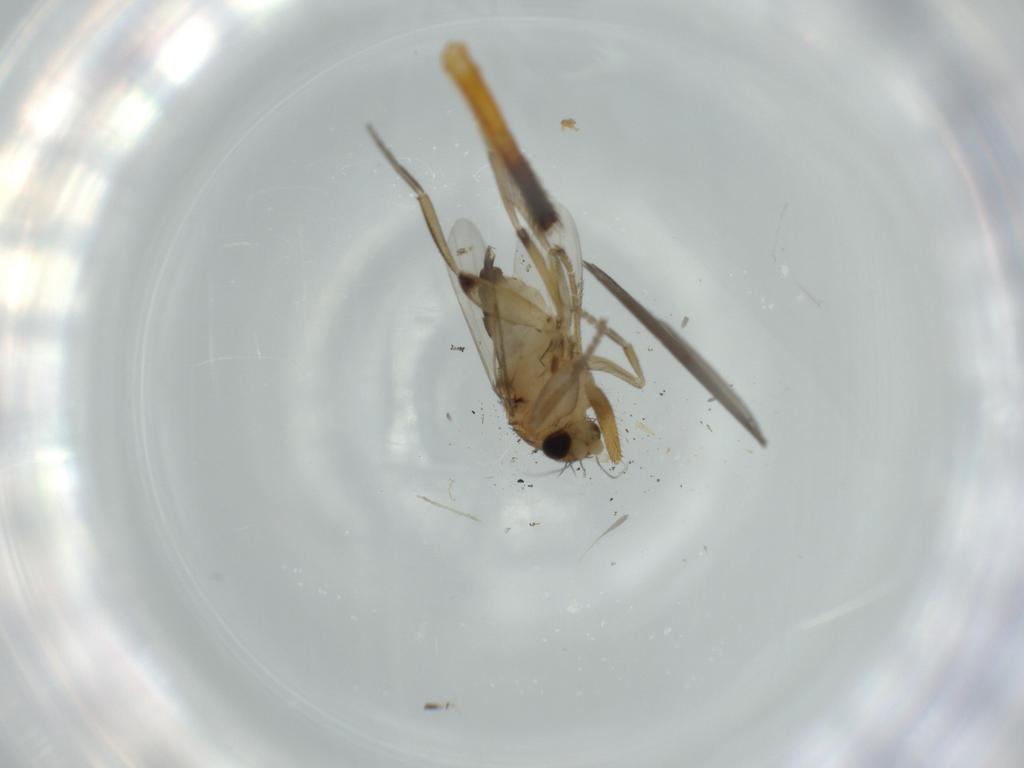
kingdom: Animalia
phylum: Arthropoda
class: Insecta
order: Diptera
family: Phoridae
